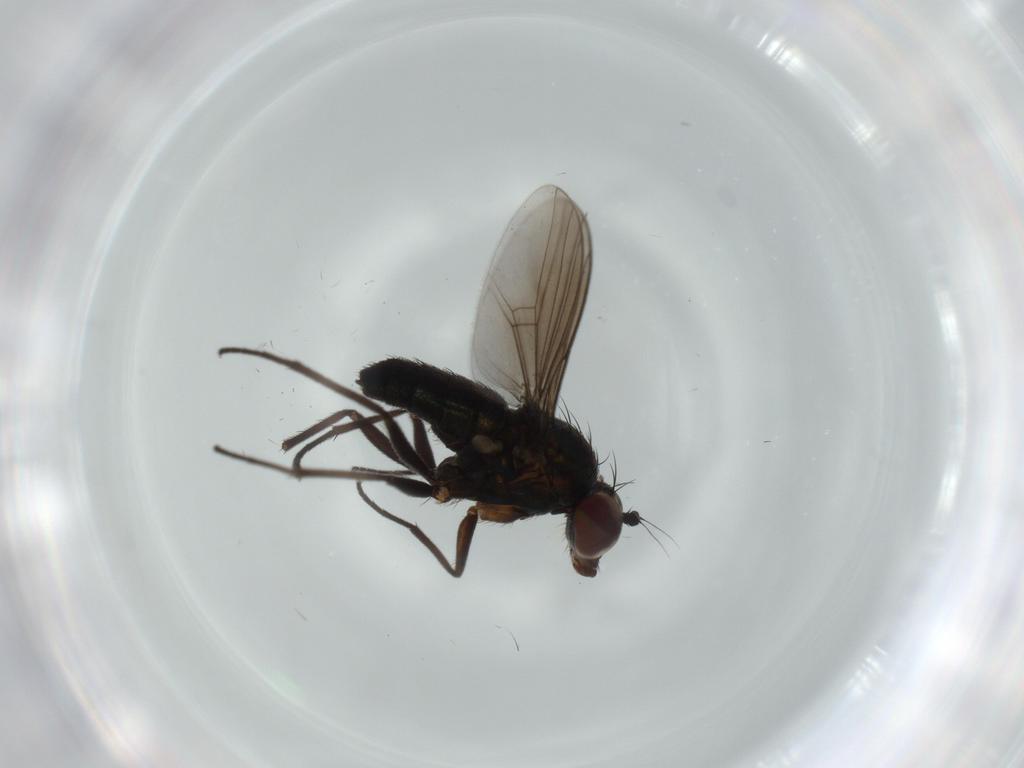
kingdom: Animalia
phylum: Arthropoda
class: Insecta
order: Diptera
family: Dolichopodidae
